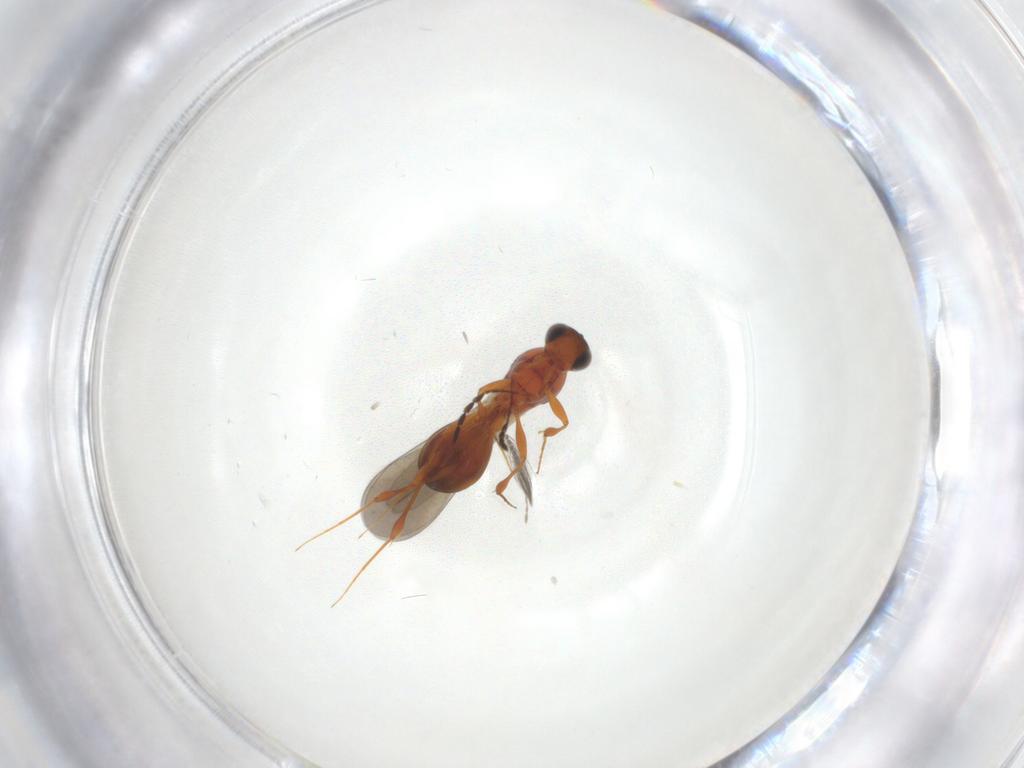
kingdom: Animalia
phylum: Arthropoda
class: Insecta
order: Hymenoptera
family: Platygastridae
